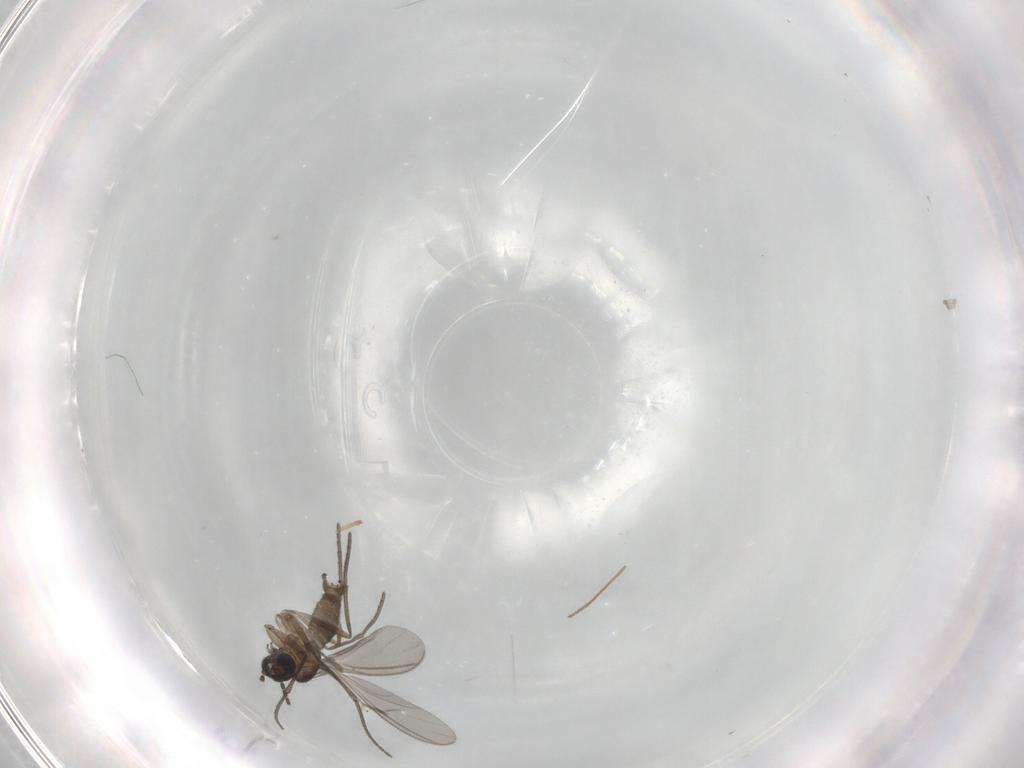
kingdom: Animalia
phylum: Arthropoda
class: Insecta
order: Diptera
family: Sciaridae
